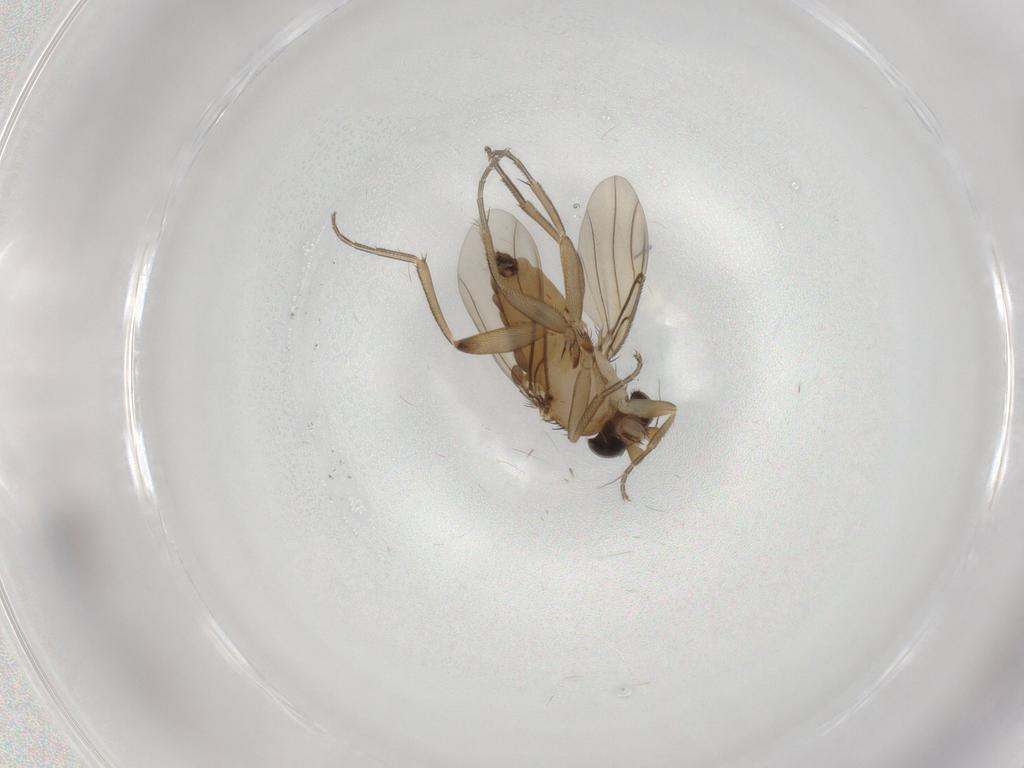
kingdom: Animalia
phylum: Arthropoda
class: Insecta
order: Diptera
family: Phoridae
